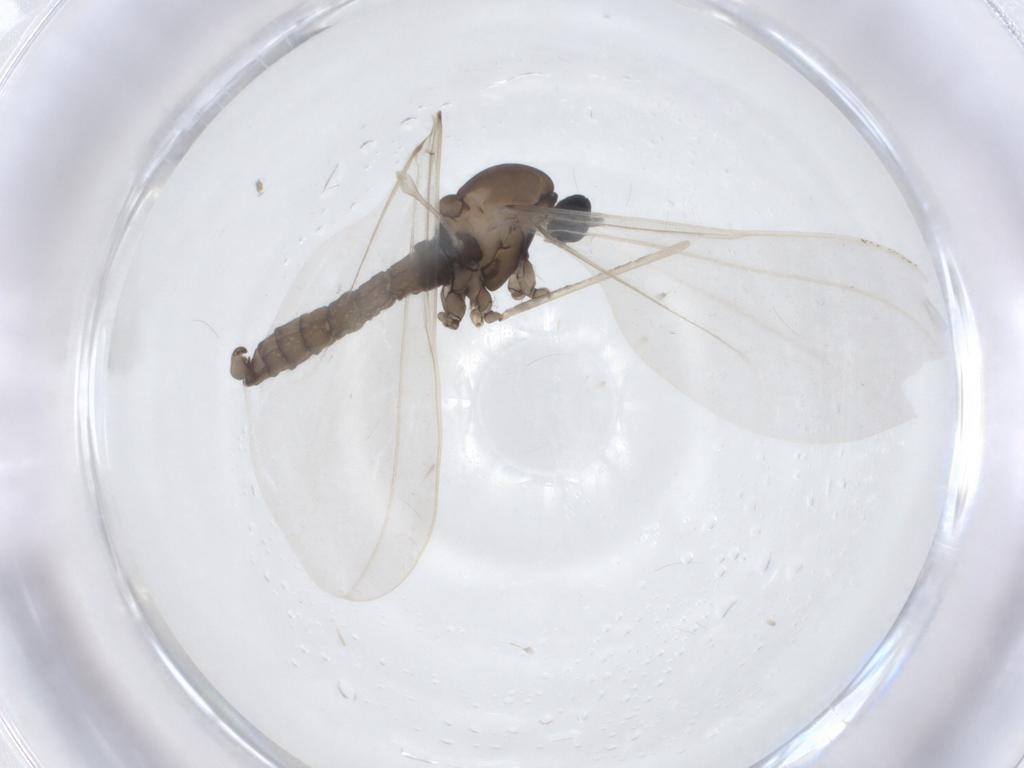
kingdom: Animalia
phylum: Arthropoda
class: Insecta
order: Diptera
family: Cecidomyiidae
